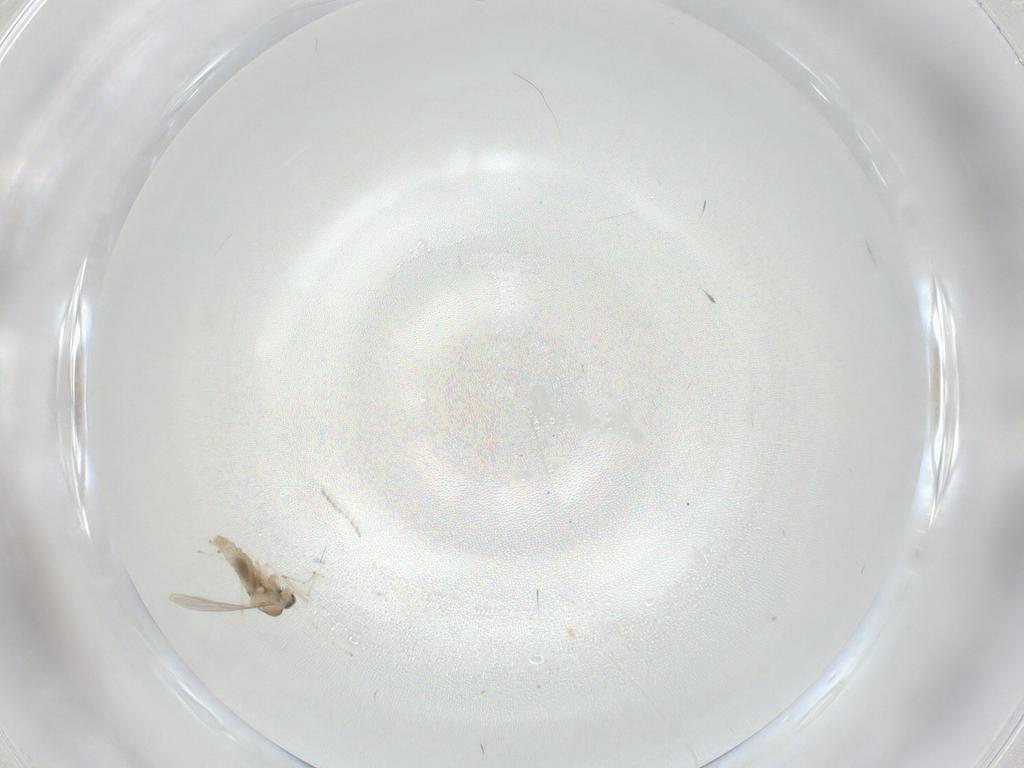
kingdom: Animalia
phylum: Arthropoda
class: Insecta
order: Diptera
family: Cecidomyiidae
